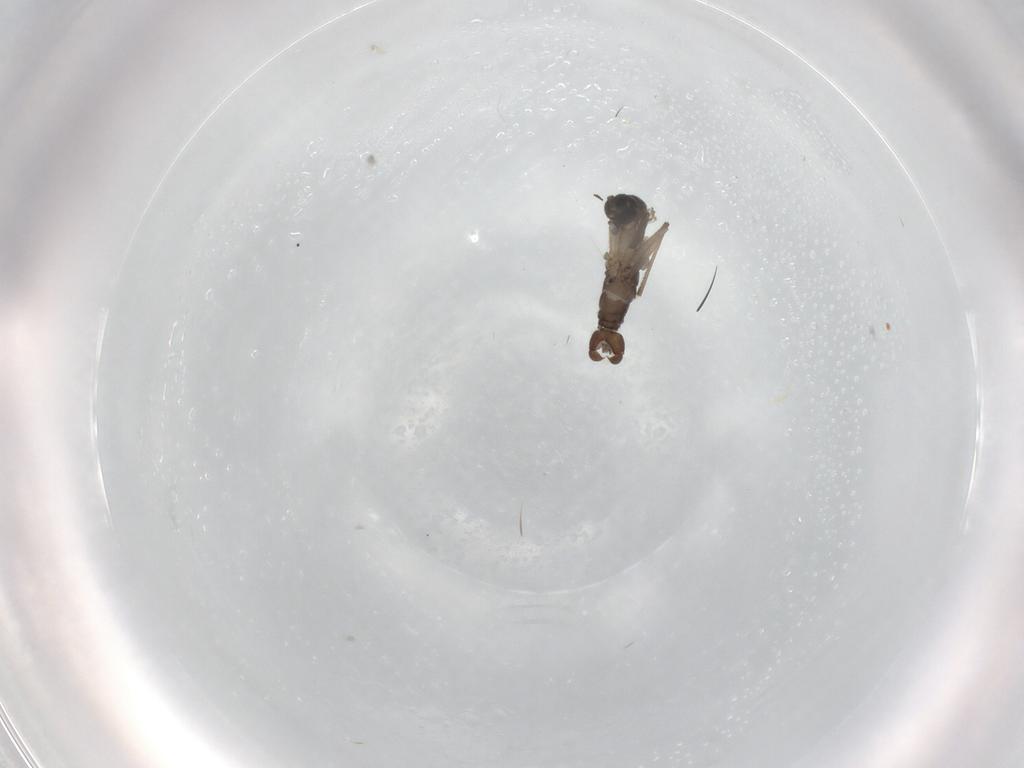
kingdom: Animalia
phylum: Arthropoda
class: Insecta
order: Diptera
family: Sciaridae
